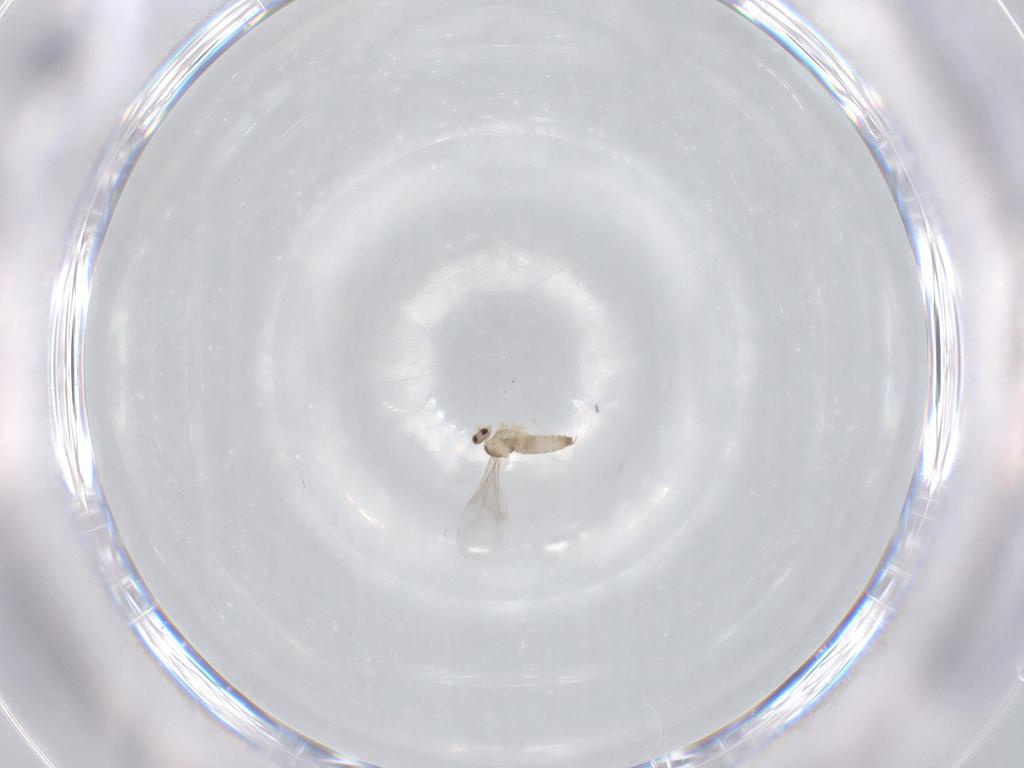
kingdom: Animalia
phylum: Arthropoda
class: Insecta
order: Diptera
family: Cecidomyiidae
